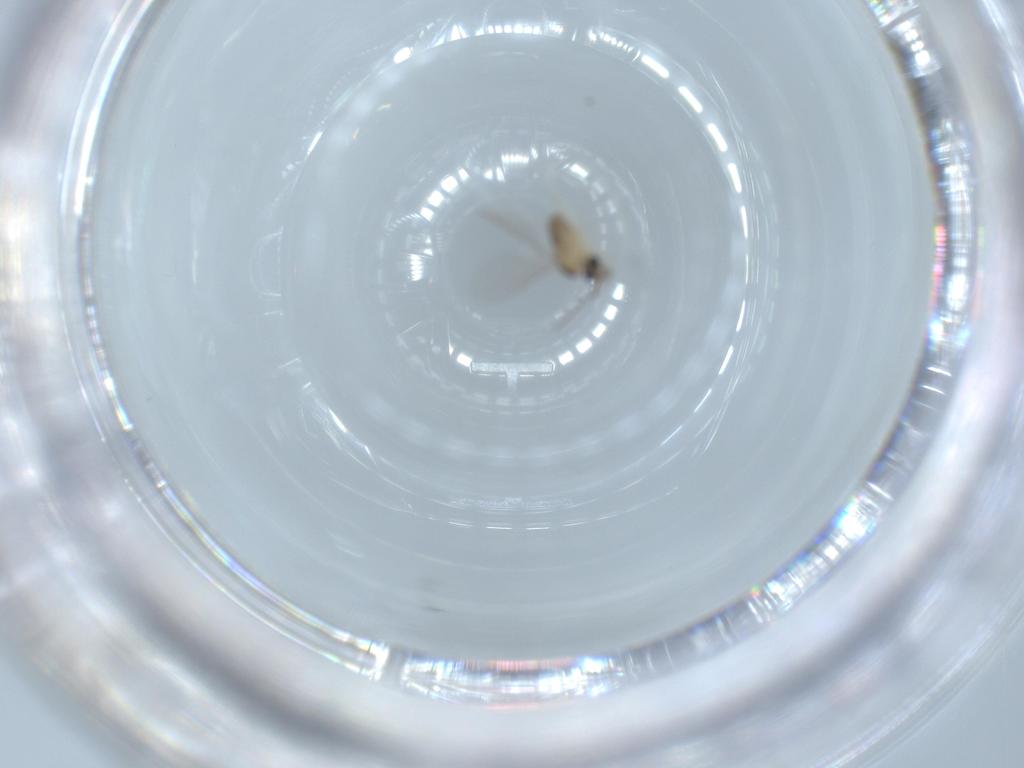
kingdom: Animalia
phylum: Arthropoda
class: Insecta
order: Diptera
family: Cecidomyiidae
